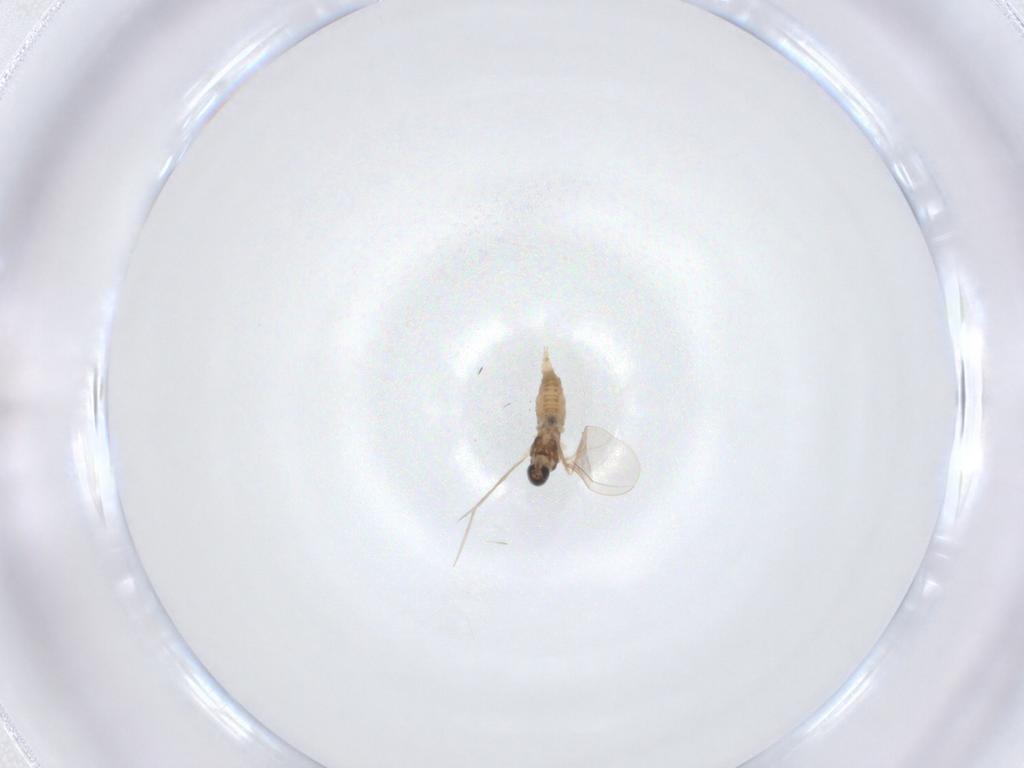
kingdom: Animalia
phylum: Arthropoda
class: Insecta
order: Diptera
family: Cecidomyiidae
